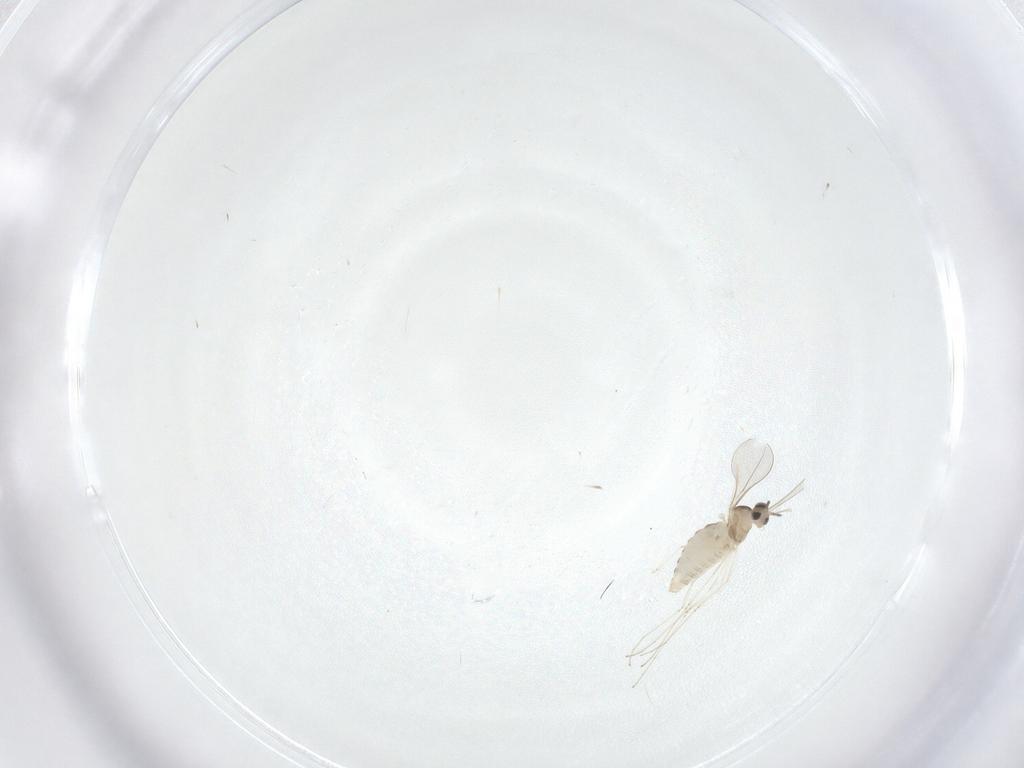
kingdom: Animalia
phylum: Arthropoda
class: Insecta
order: Diptera
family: Cecidomyiidae
